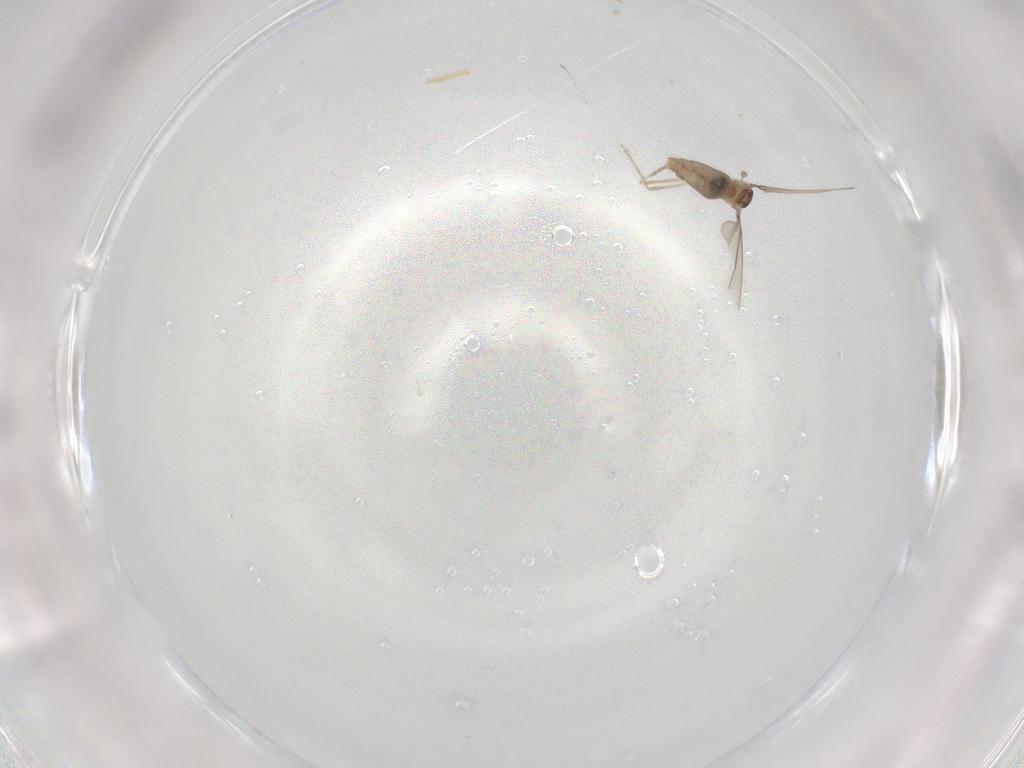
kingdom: Animalia
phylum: Arthropoda
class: Insecta
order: Diptera
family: Cecidomyiidae
